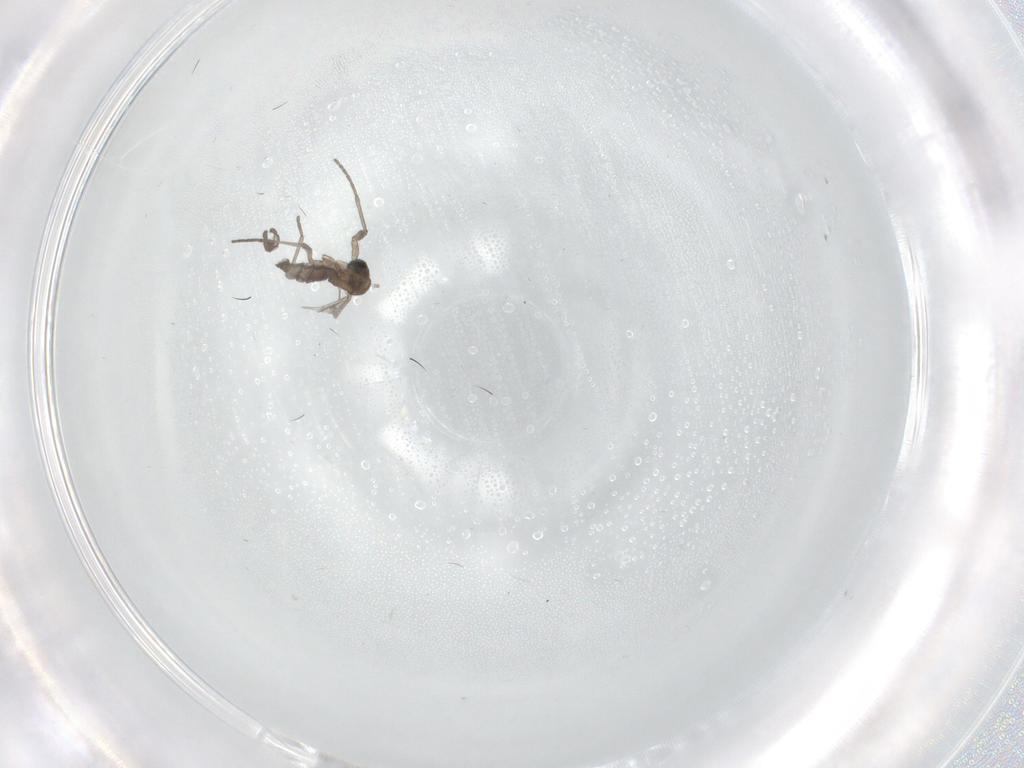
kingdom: Animalia
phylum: Arthropoda
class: Insecta
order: Diptera
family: Sciaridae
